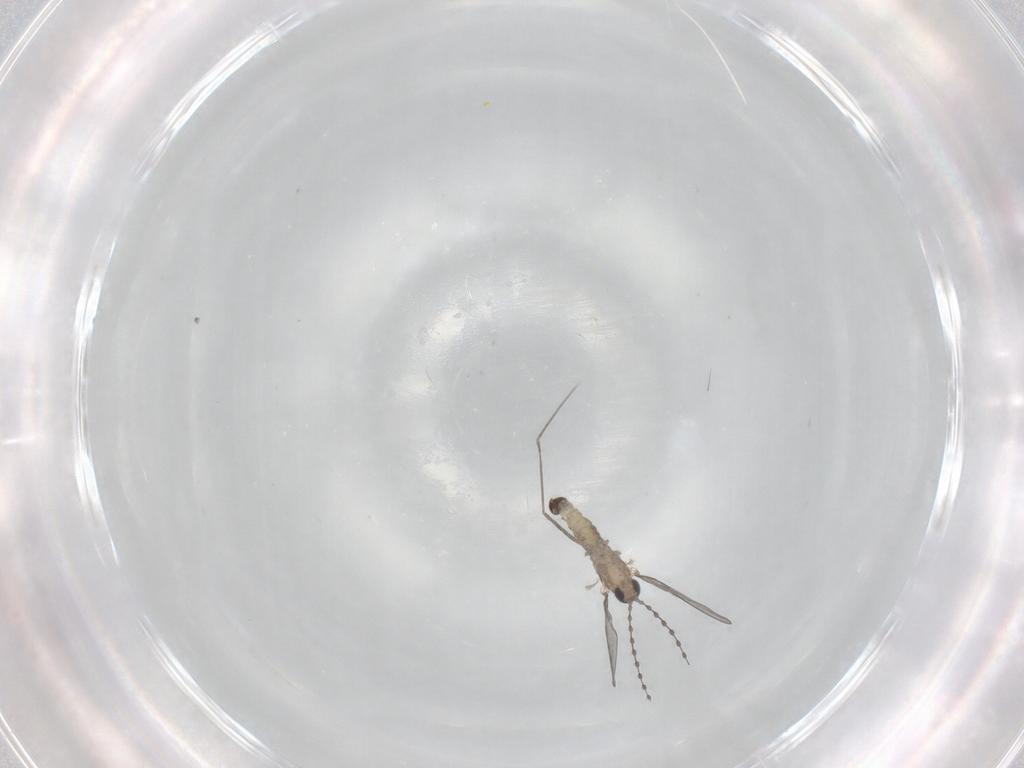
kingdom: Animalia
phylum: Arthropoda
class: Insecta
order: Diptera
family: Cecidomyiidae
